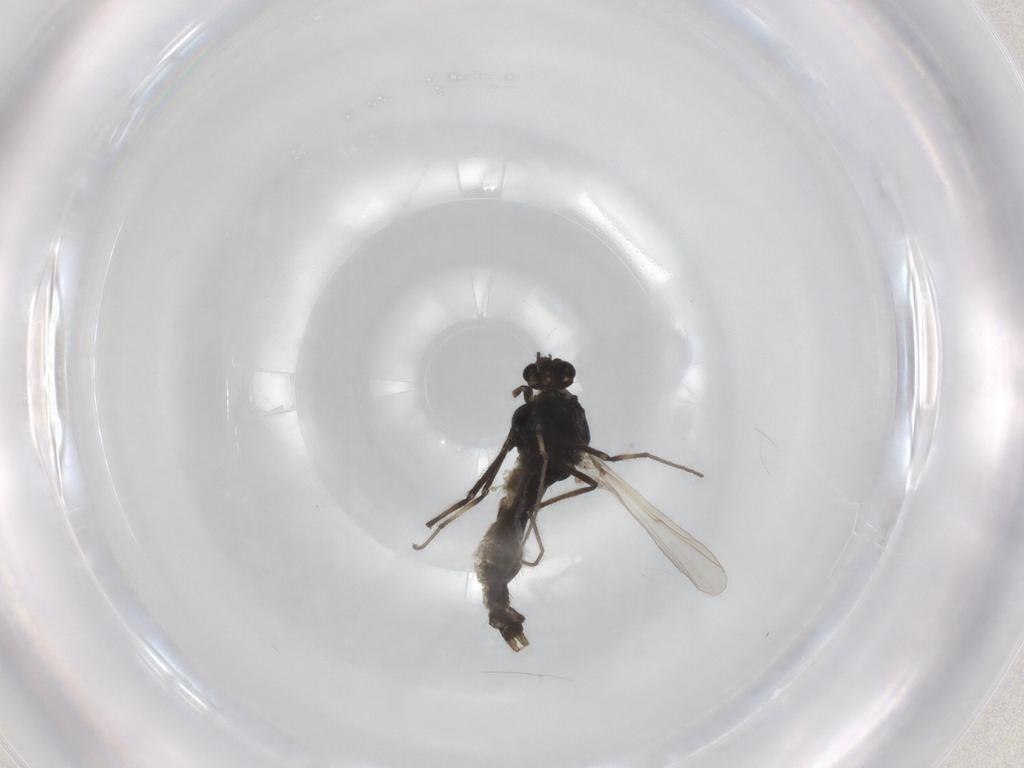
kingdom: Animalia
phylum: Arthropoda
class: Insecta
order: Diptera
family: Chironomidae
